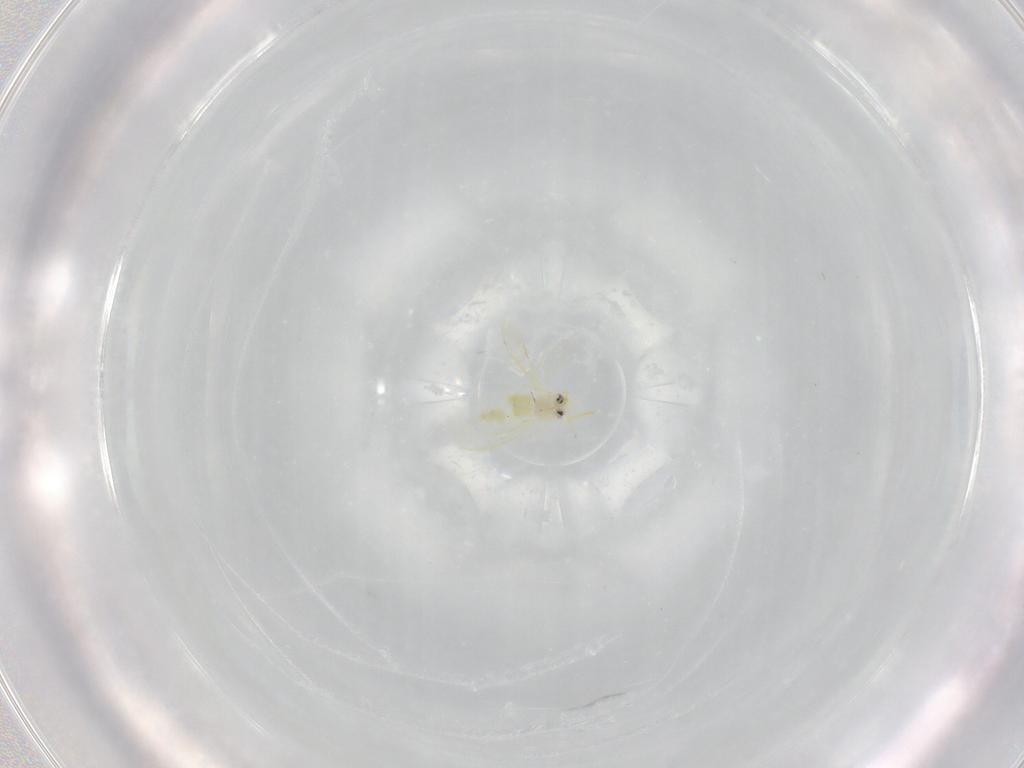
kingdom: Animalia
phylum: Arthropoda
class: Insecta
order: Hemiptera
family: Aleyrodidae
